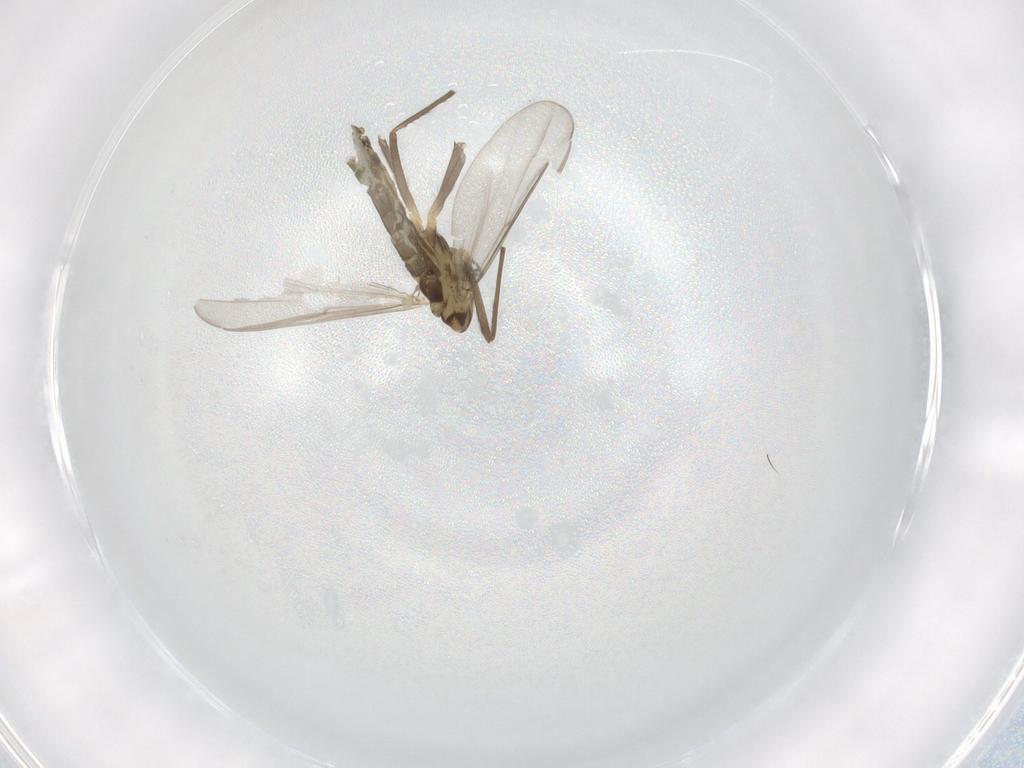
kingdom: Animalia
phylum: Arthropoda
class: Insecta
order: Diptera
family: Chironomidae
